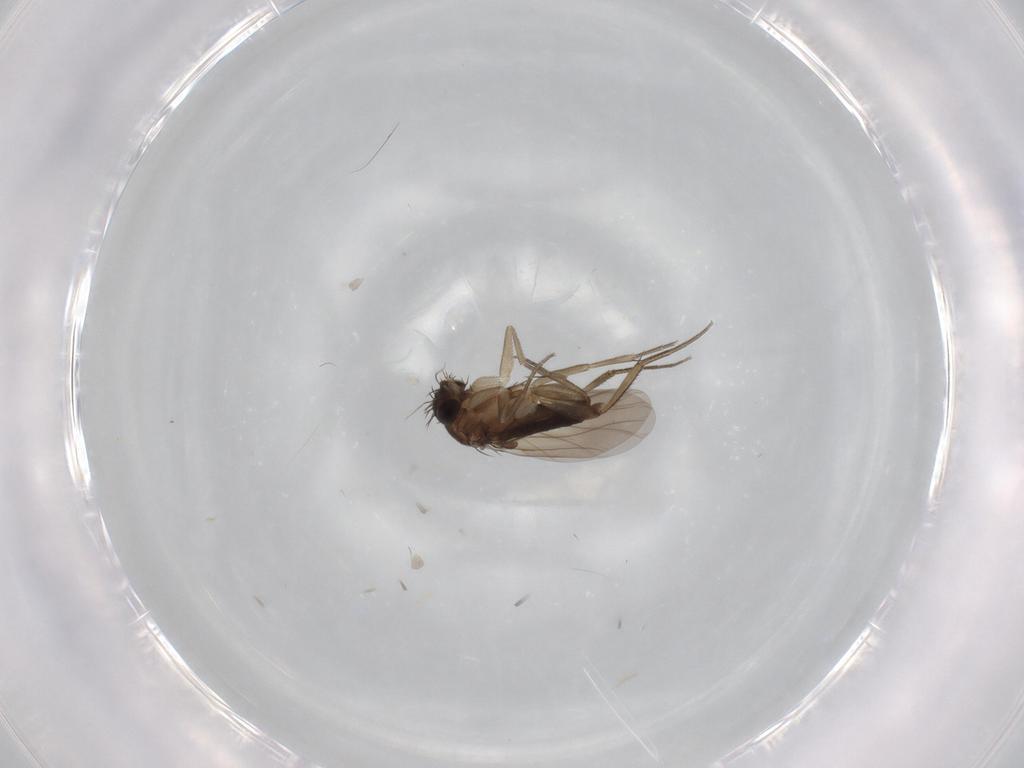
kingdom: Animalia
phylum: Arthropoda
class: Insecta
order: Diptera
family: Phoridae
